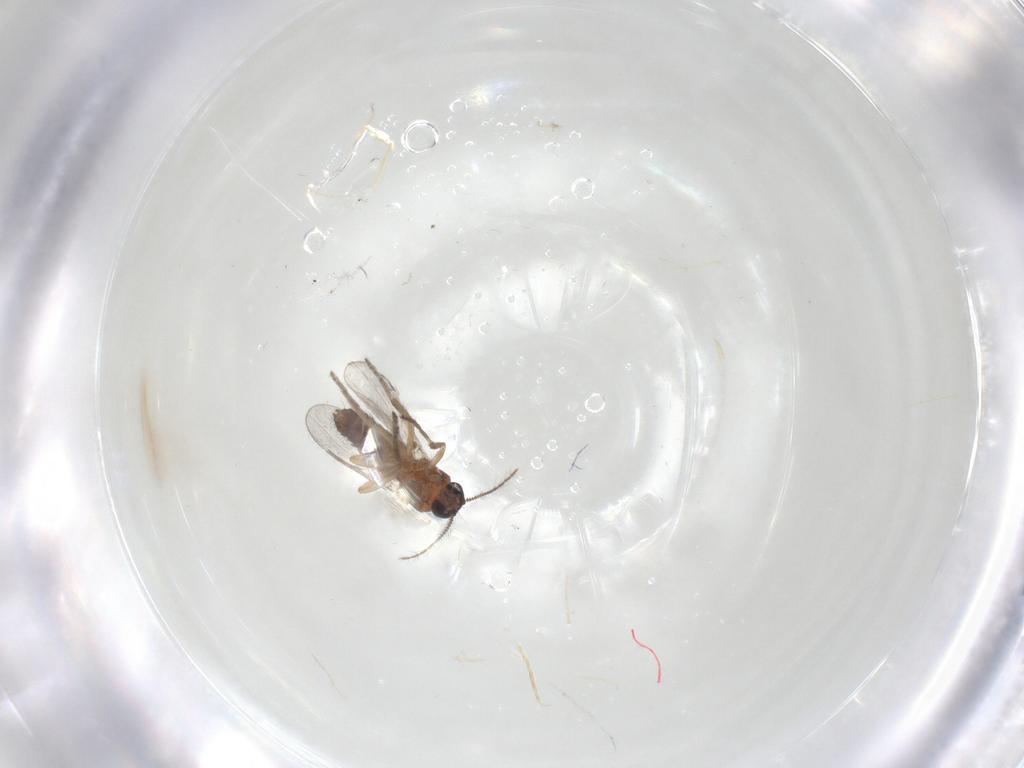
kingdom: Animalia
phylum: Arthropoda
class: Insecta
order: Diptera
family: Ceratopogonidae
